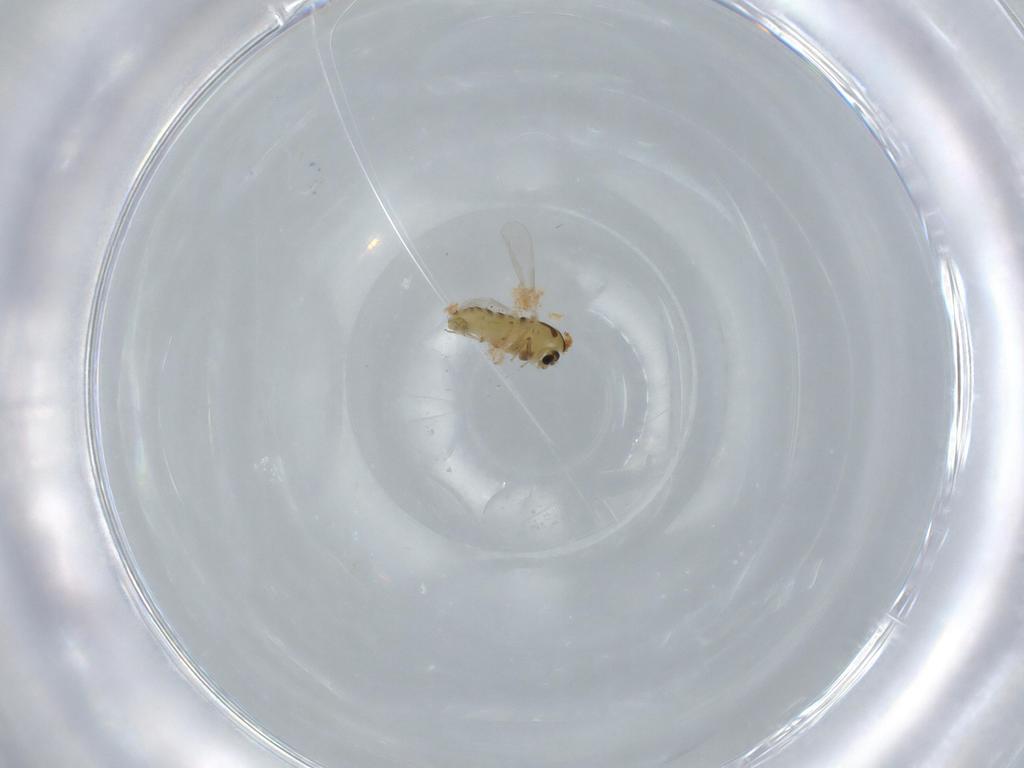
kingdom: Animalia
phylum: Arthropoda
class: Insecta
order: Diptera
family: Chironomidae
